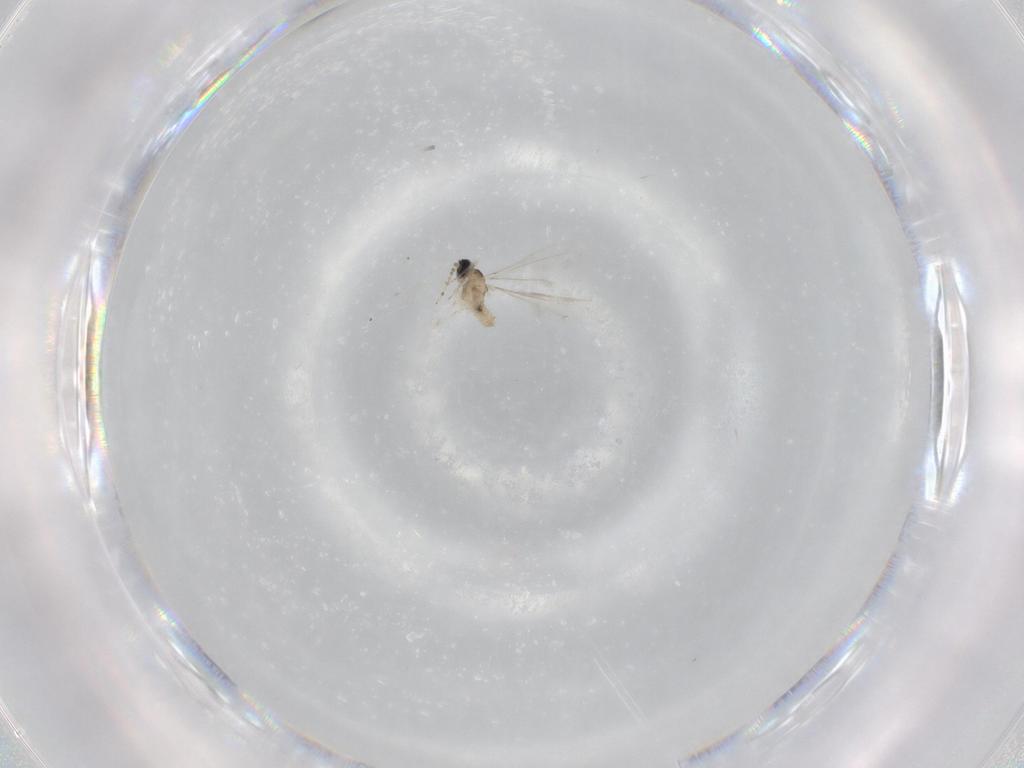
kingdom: Animalia
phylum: Arthropoda
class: Insecta
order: Diptera
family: Cecidomyiidae
